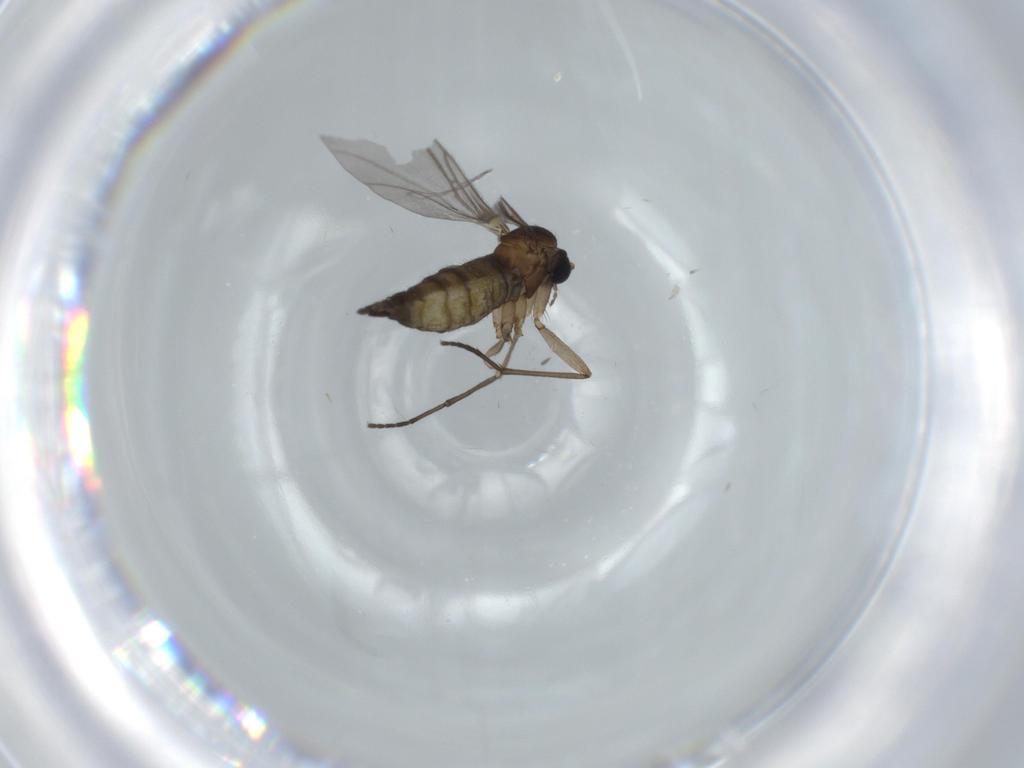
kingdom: Animalia
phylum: Arthropoda
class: Insecta
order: Diptera
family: Sciaridae
